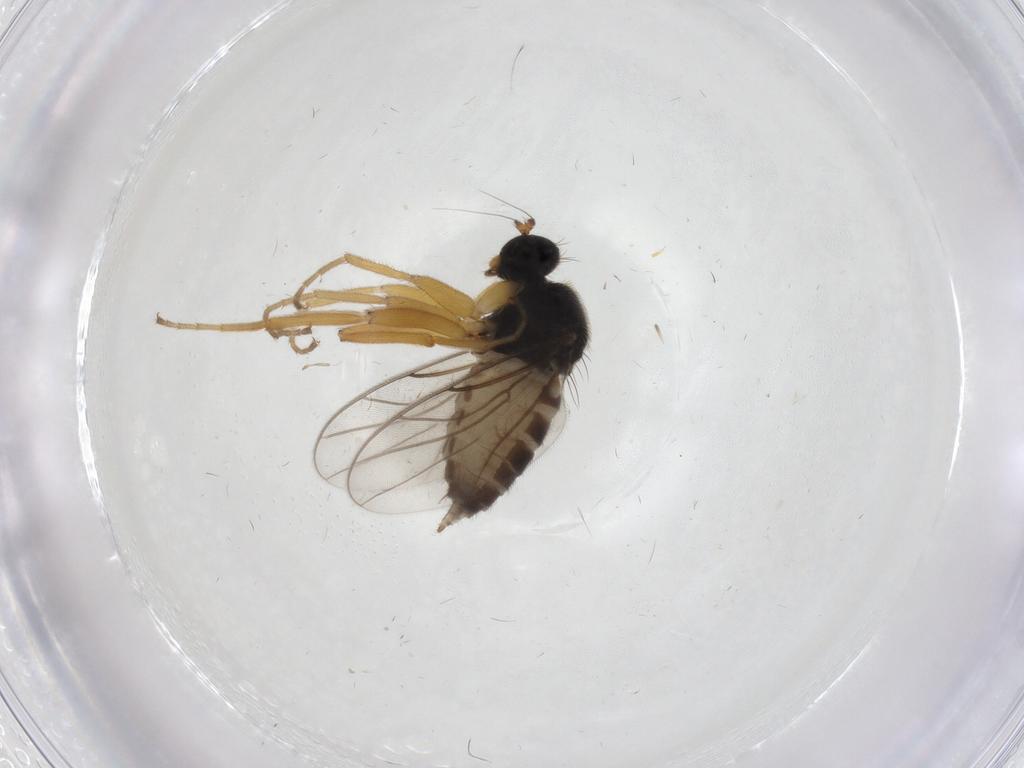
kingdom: Animalia
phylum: Arthropoda
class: Insecta
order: Diptera
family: Hybotidae
